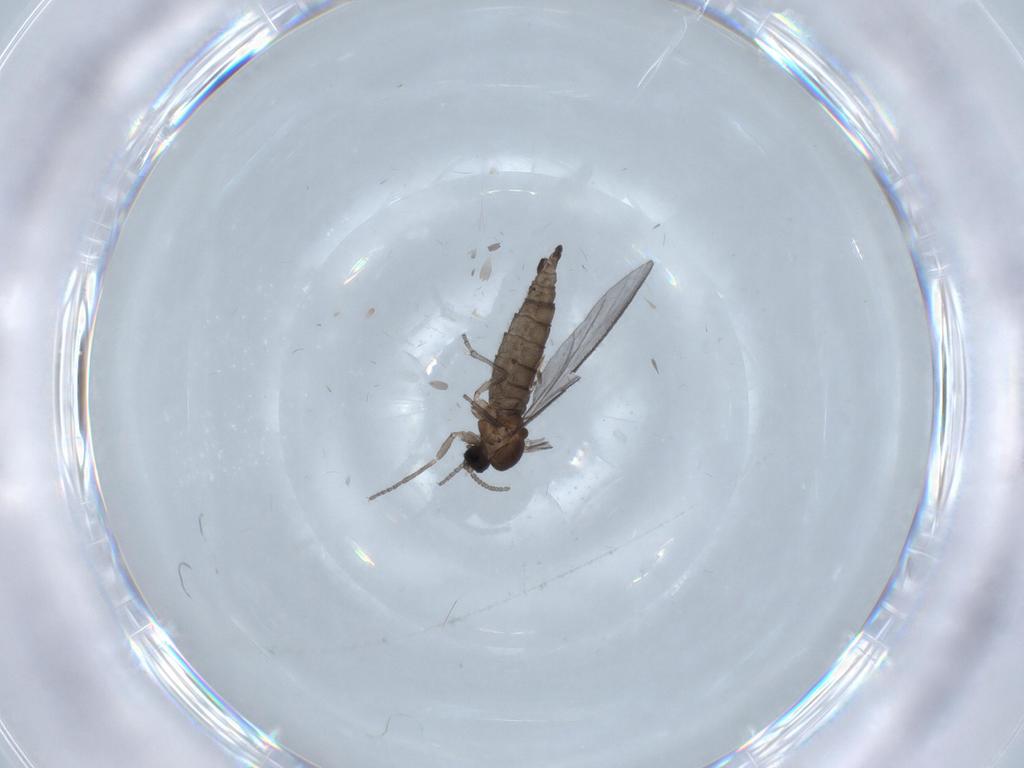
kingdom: Animalia
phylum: Arthropoda
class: Insecta
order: Diptera
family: Sciaridae
